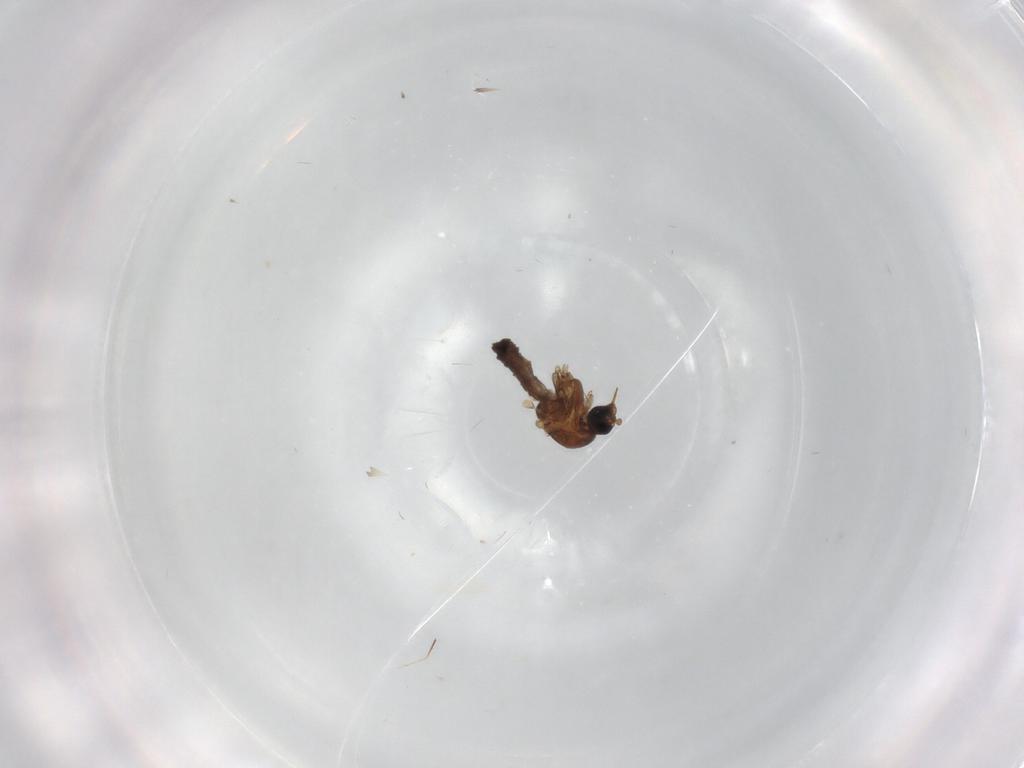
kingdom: Animalia
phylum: Arthropoda
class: Insecta
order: Diptera
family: Ceratopogonidae
